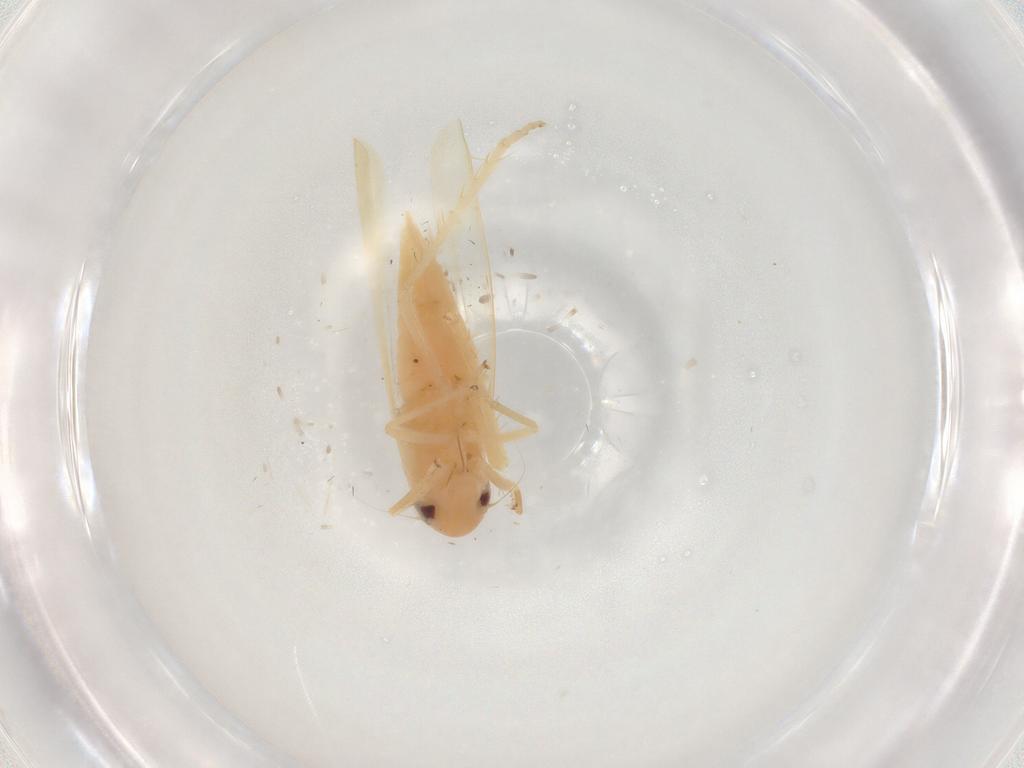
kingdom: Animalia
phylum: Arthropoda
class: Insecta
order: Hemiptera
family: Cicadellidae
